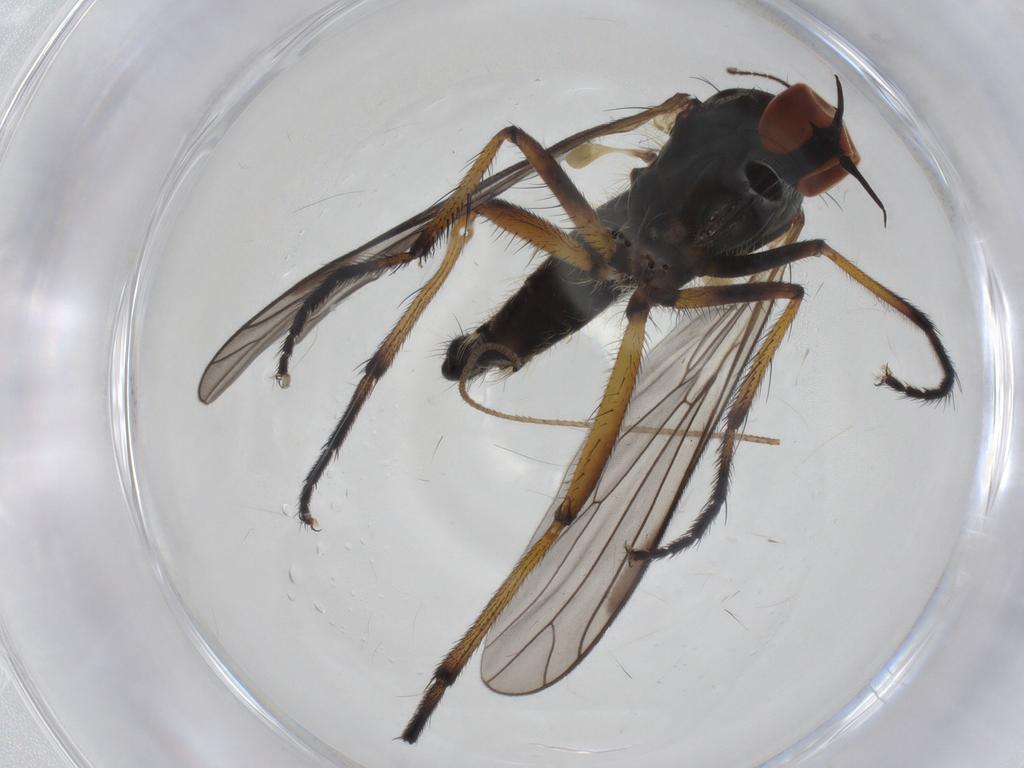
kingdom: Animalia
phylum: Arthropoda
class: Insecta
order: Diptera
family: Empididae
